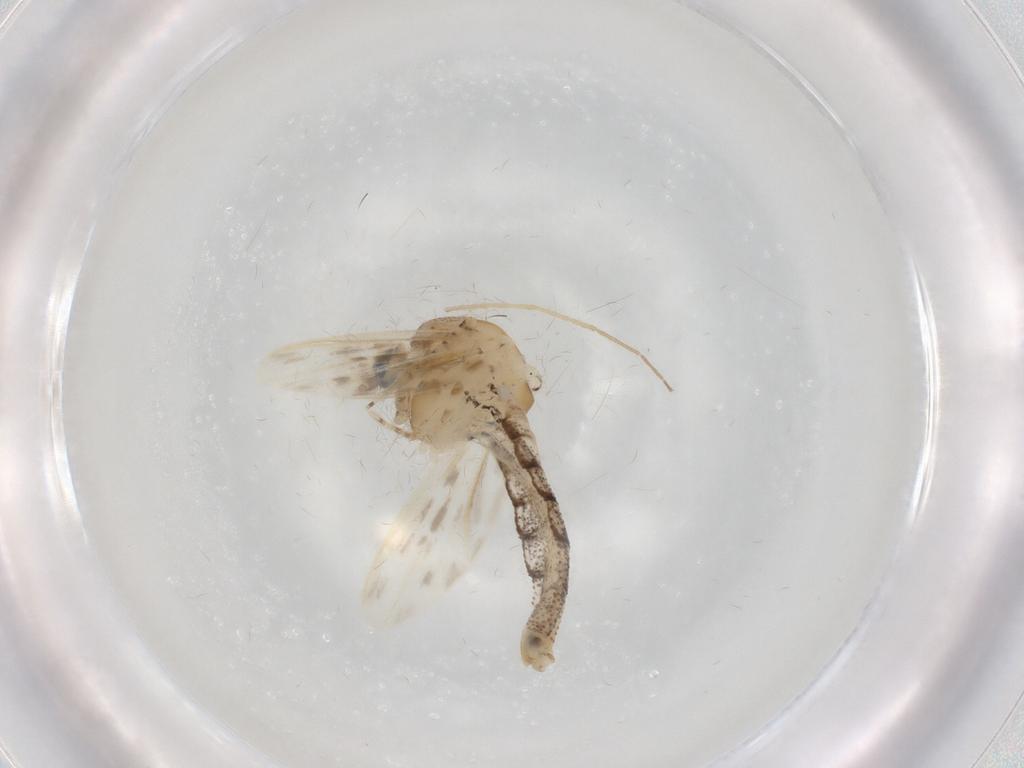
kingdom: Animalia
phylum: Arthropoda
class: Insecta
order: Diptera
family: Chaoboridae
